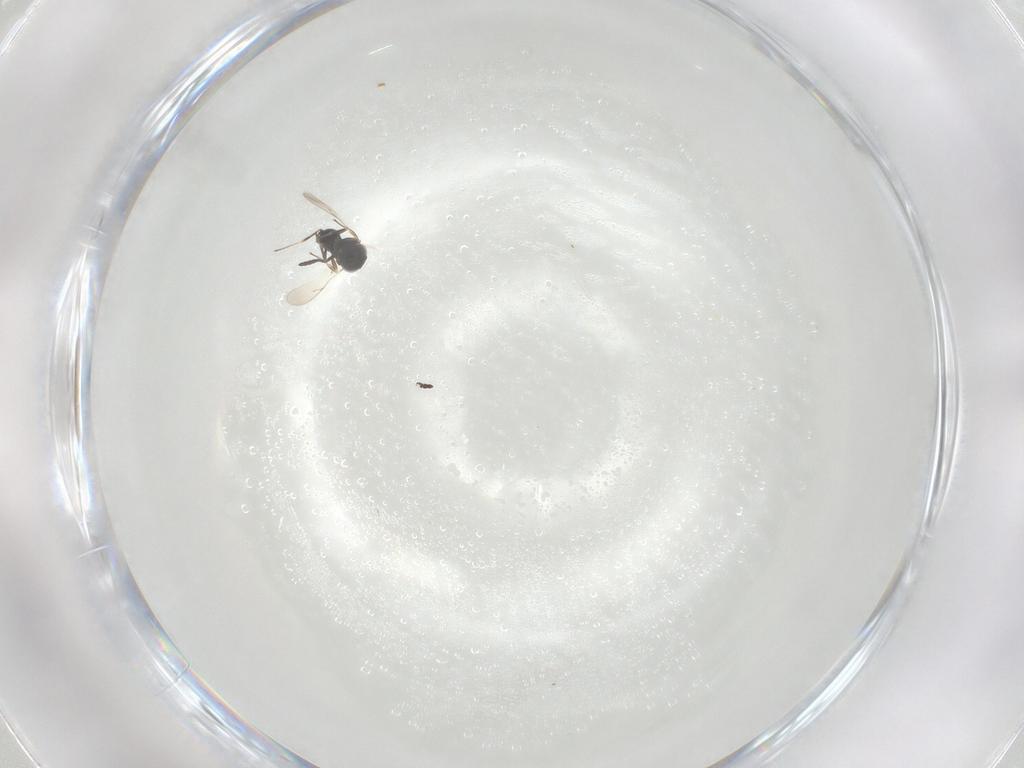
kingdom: Animalia
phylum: Arthropoda
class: Insecta
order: Hymenoptera
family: Scelionidae
